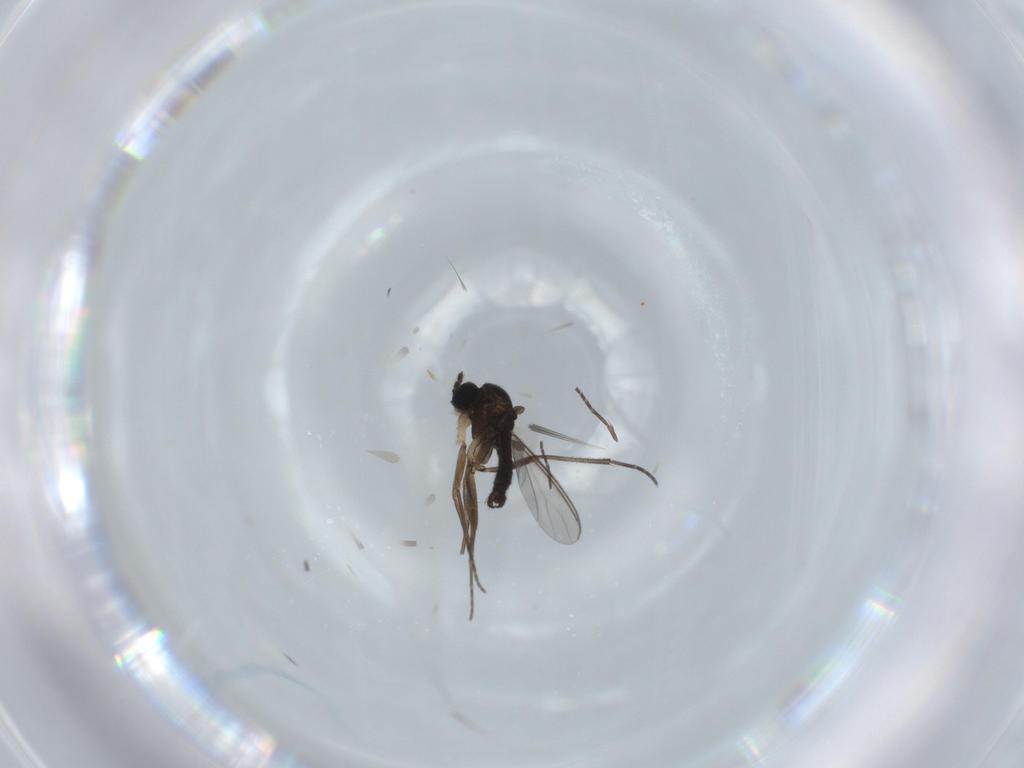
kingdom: Animalia
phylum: Arthropoda
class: Insecta
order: Diptera
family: Sciaridae
